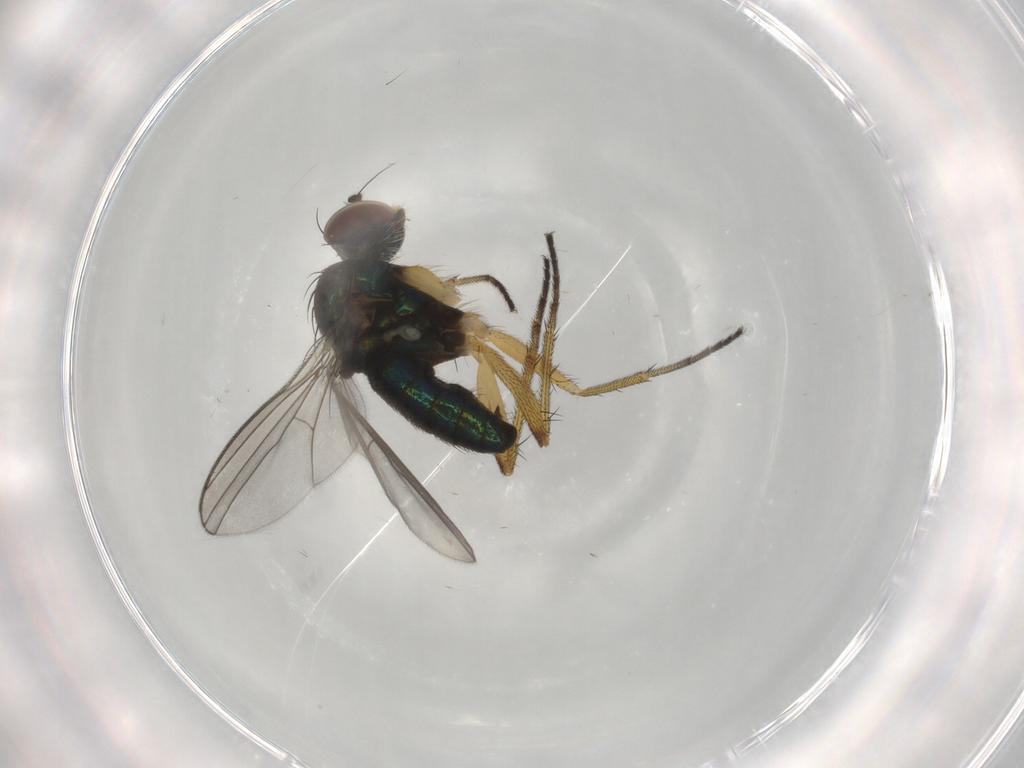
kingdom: Animalia
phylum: Arthropoda
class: Insecta
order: Diptera
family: Dolichopodidae
